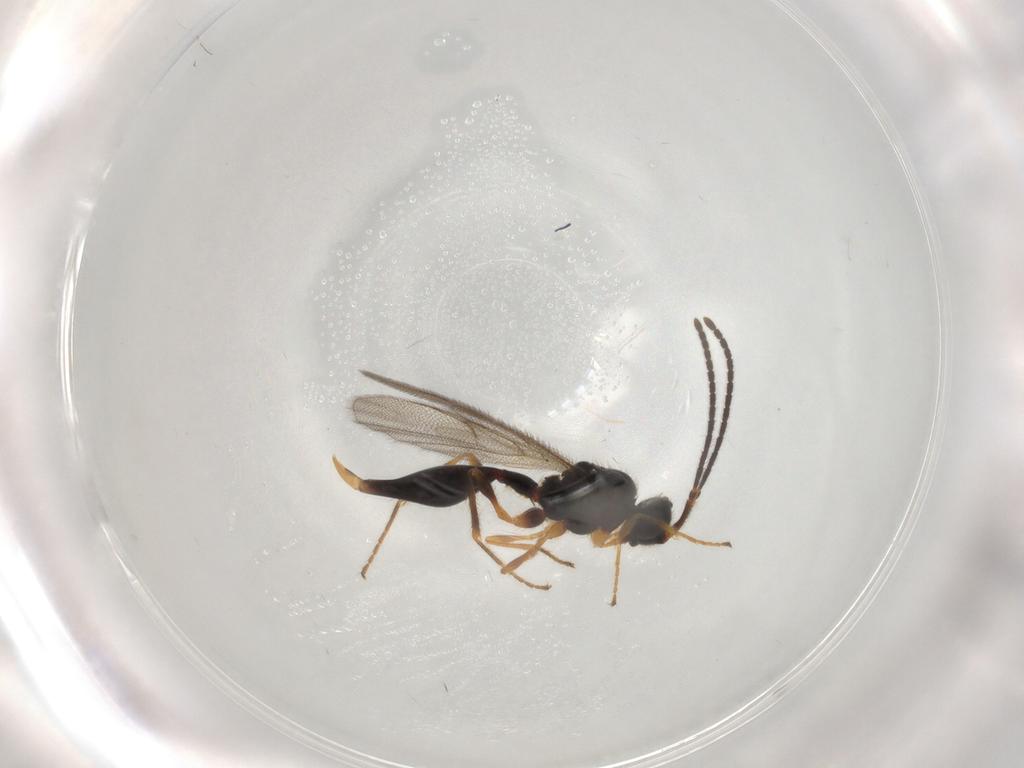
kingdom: Animalia
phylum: Arthropoda
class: Insecta
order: Hymenoptera
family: Diapriidae
